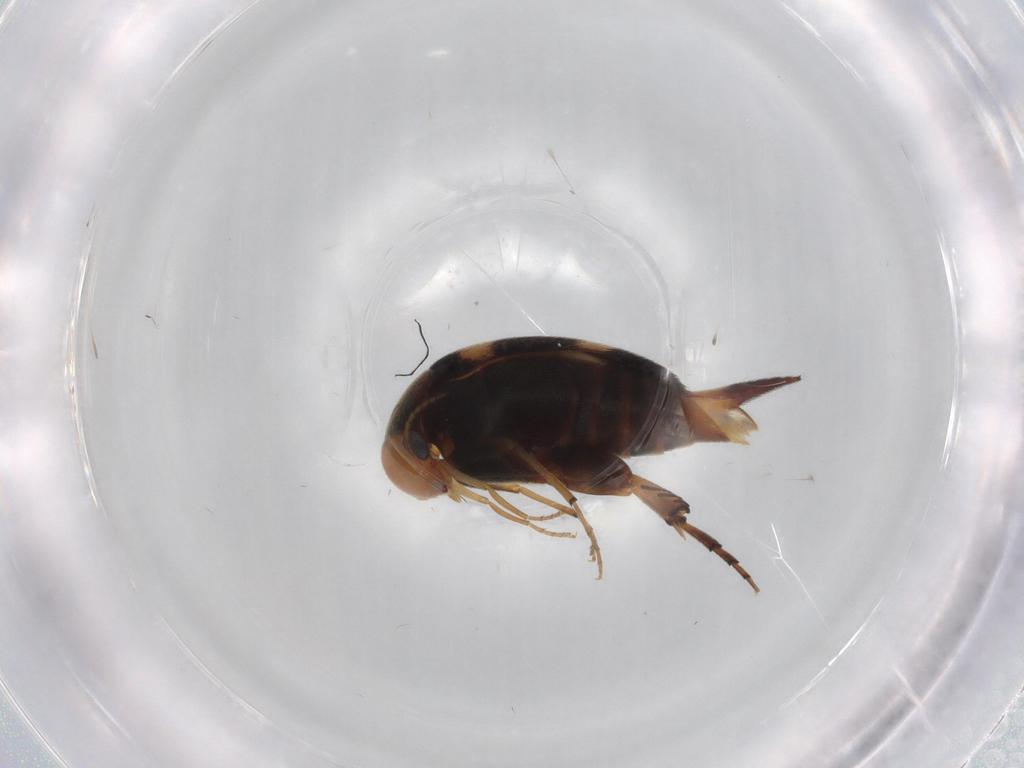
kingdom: Animalia
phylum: Arthropoda
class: Insecta
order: Coleoptera
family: Mordellidae
